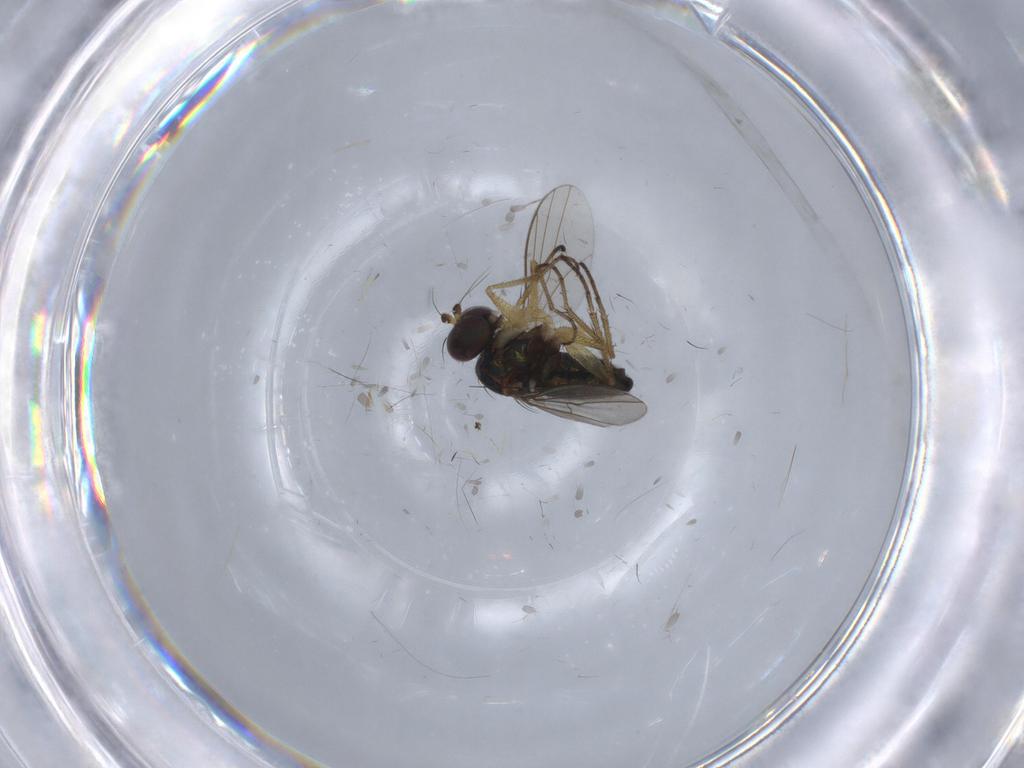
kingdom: Animalia
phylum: Arthropoda
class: Insecta
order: Diptera
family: Dolichopodidae
